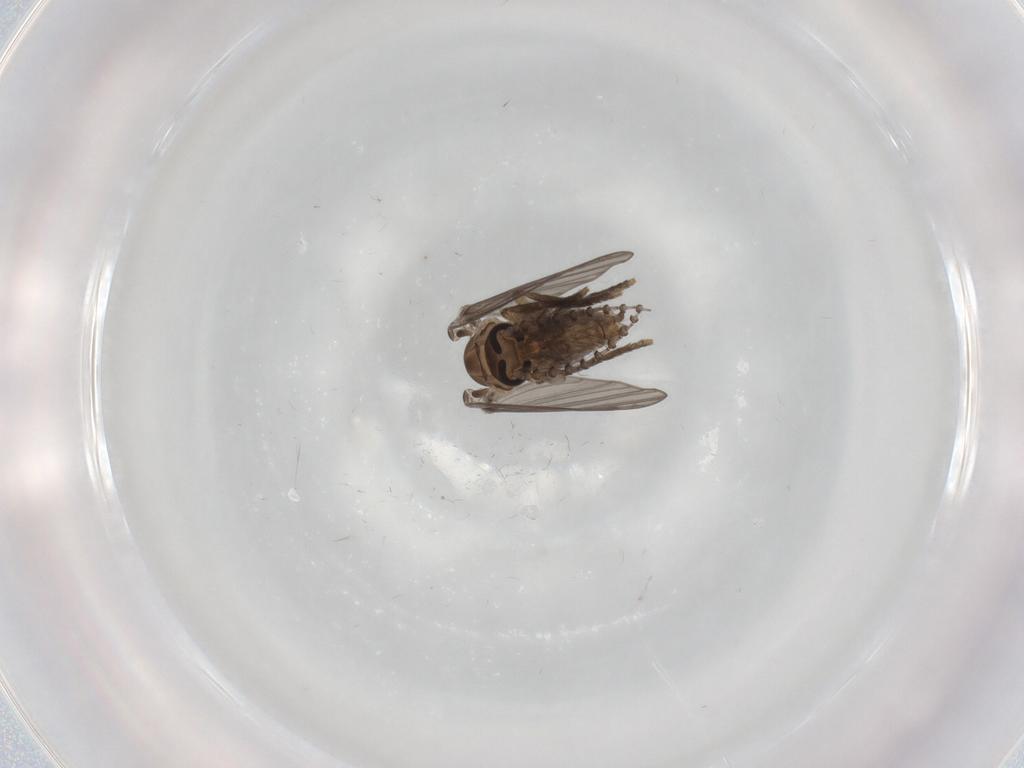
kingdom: Animalia
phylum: Arthropoda
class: Insecta
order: Diptera
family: Psychodidae
